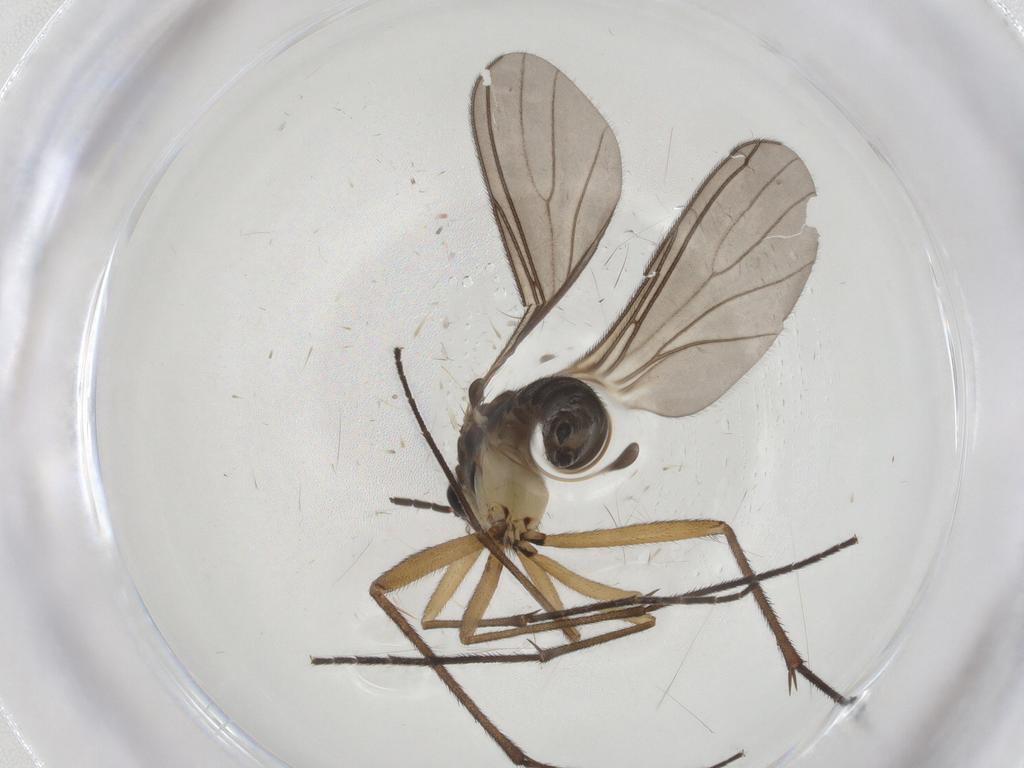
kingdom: Animalia
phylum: Arthropoda
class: Insecta
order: Diptera
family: Sciaridae
